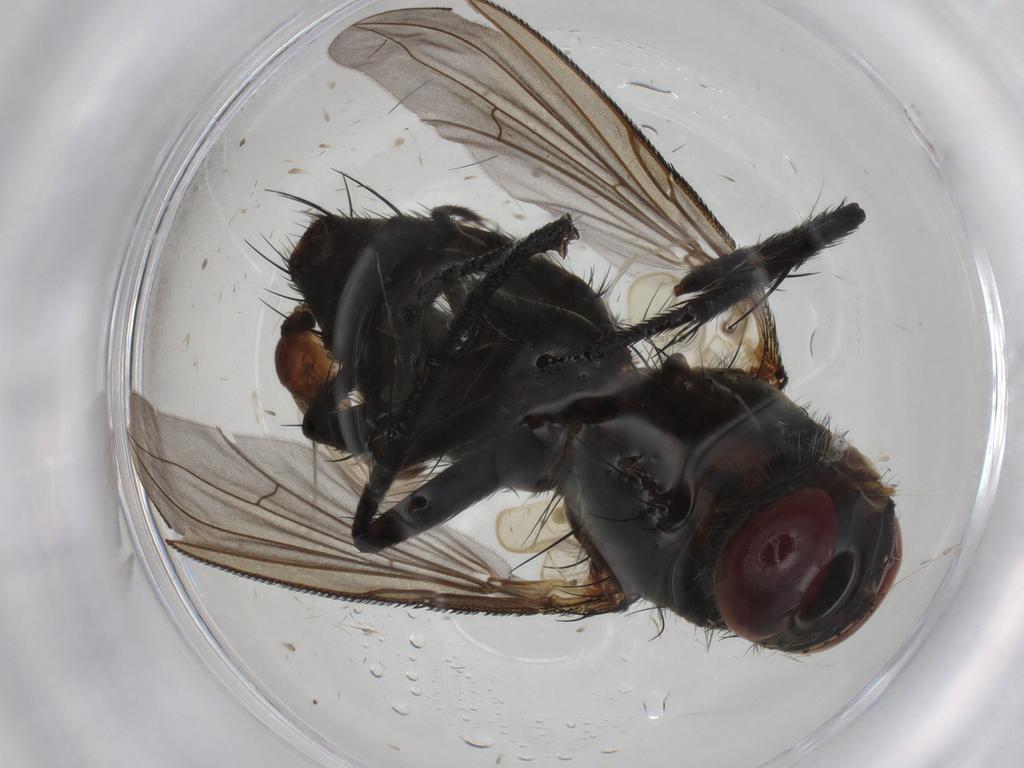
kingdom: Animalia
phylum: Arthropoda
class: Insecta
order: Diptera
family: Tachinidae
